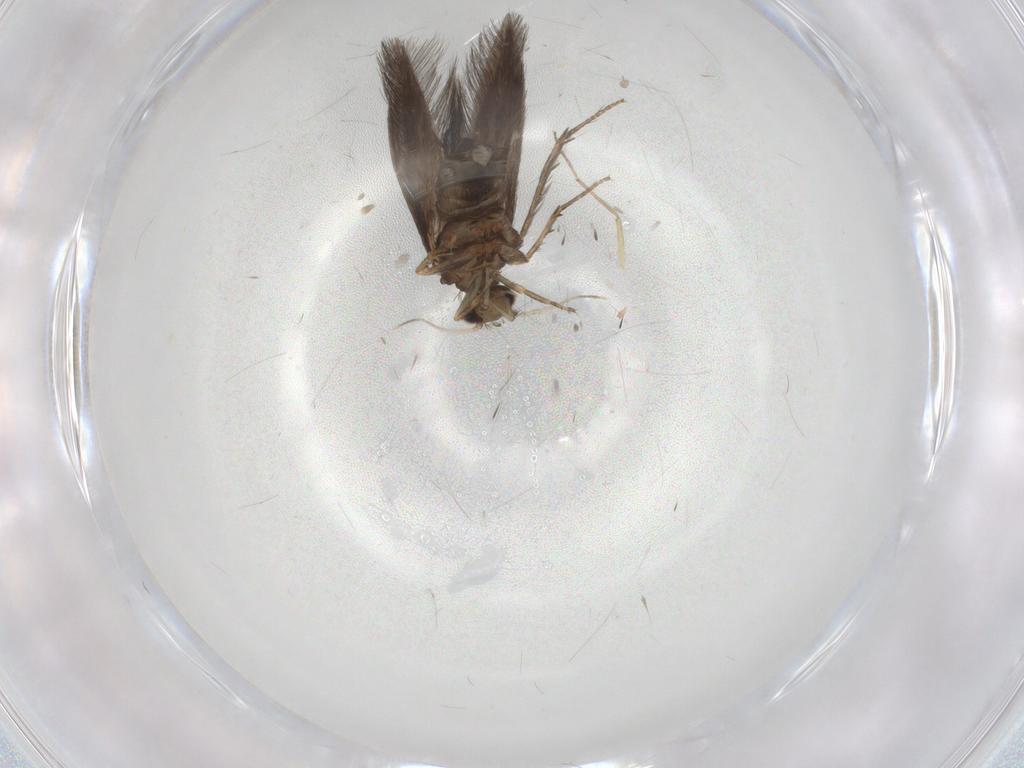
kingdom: Animalia
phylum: Arthropoda
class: Insecta
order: Trichoptera
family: Hydroptilidae
